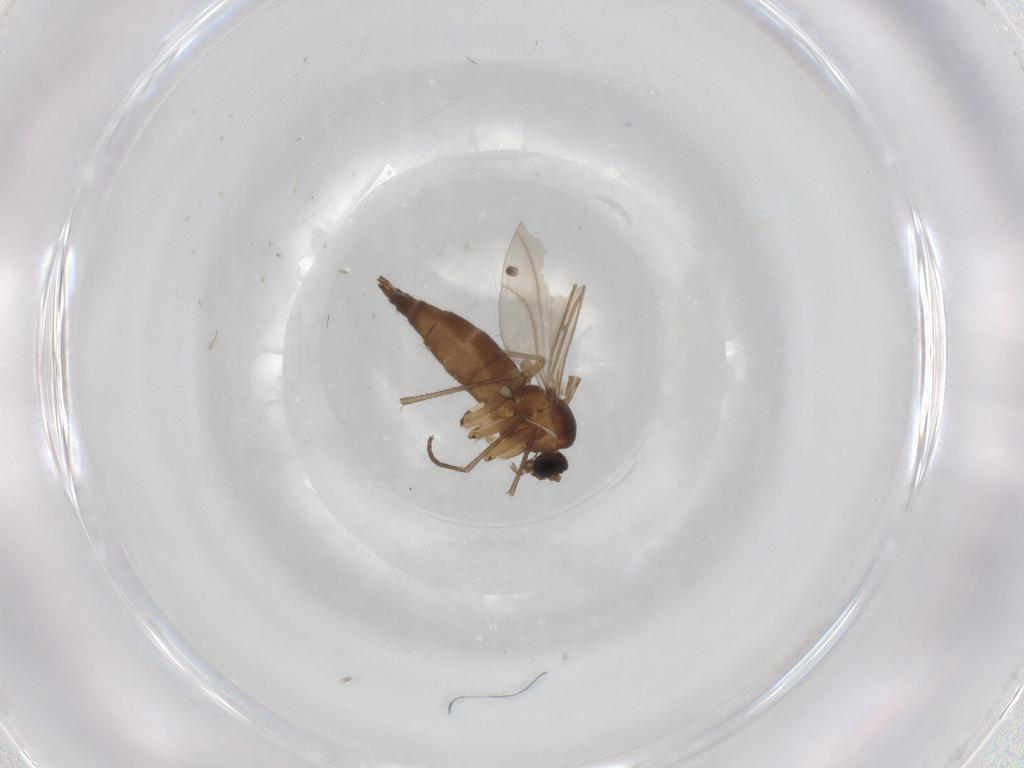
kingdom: Animalia
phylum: Arthropoda
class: Insecta
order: Diptera
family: Sciaridae
